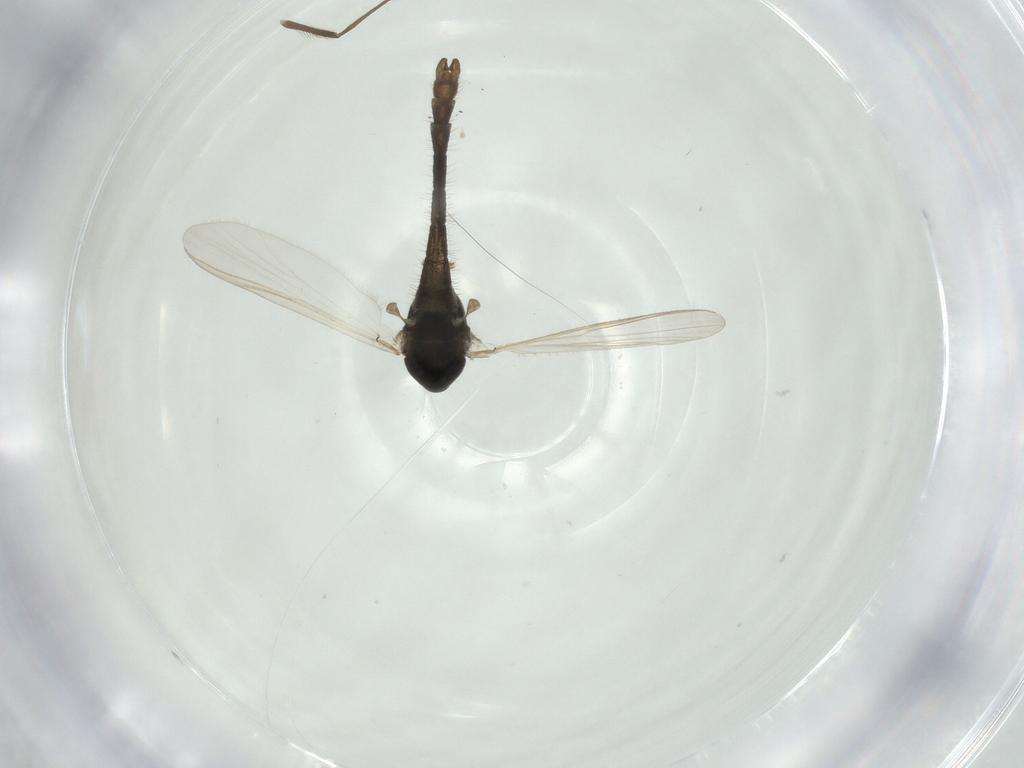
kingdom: Animalia
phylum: Arthropoda
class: Insecta
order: Diptera
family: Chironomidae
